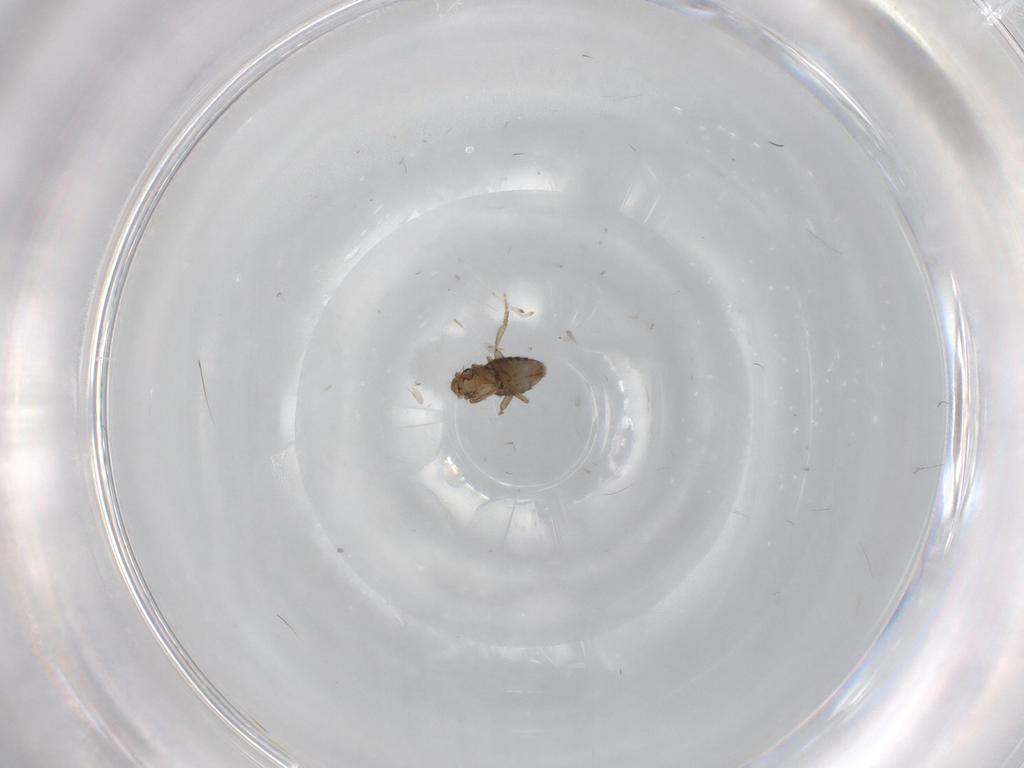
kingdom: Animalia
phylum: Arthropoda
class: Insecta
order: Diptera
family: Cecidomyiidae
